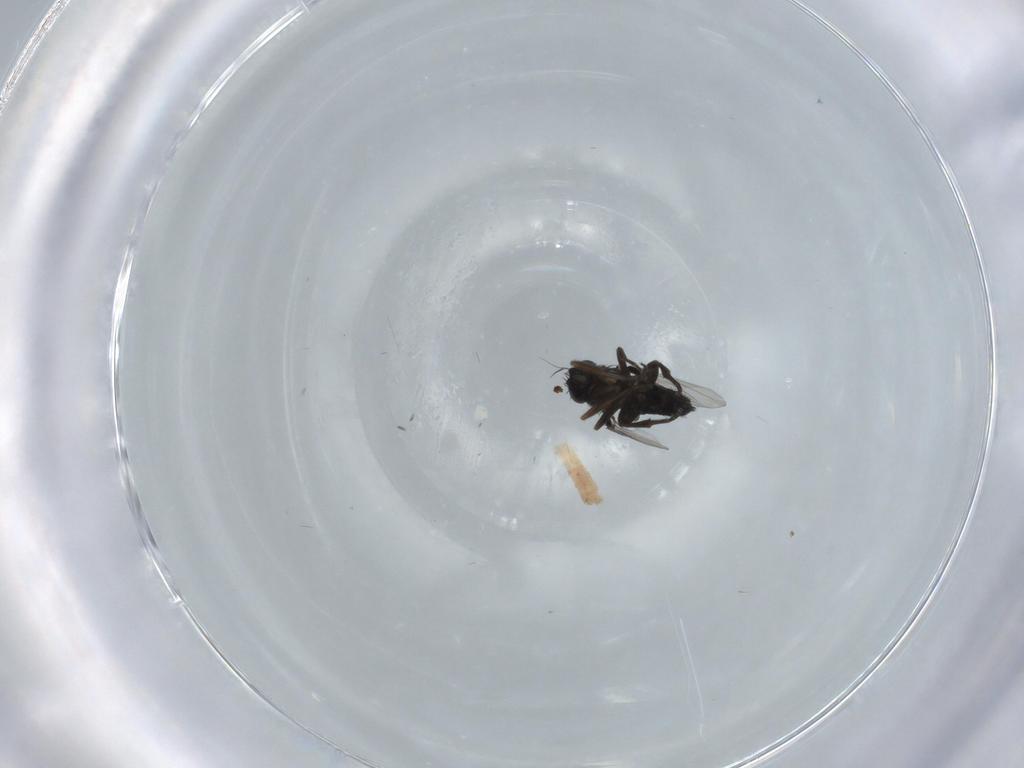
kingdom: Animalia
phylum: Arthropoda
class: Insecta
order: Diptera
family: Phoridae
